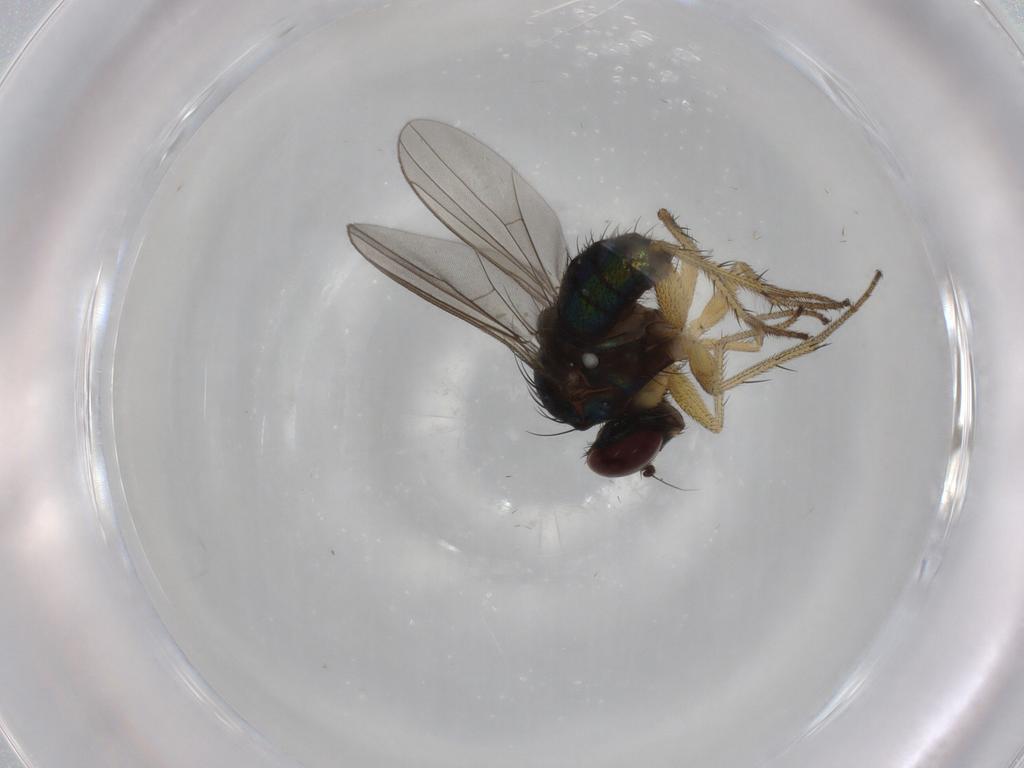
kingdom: Animalia
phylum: Arthropoda
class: Insecta
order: Diptera
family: Dolichopodidae
